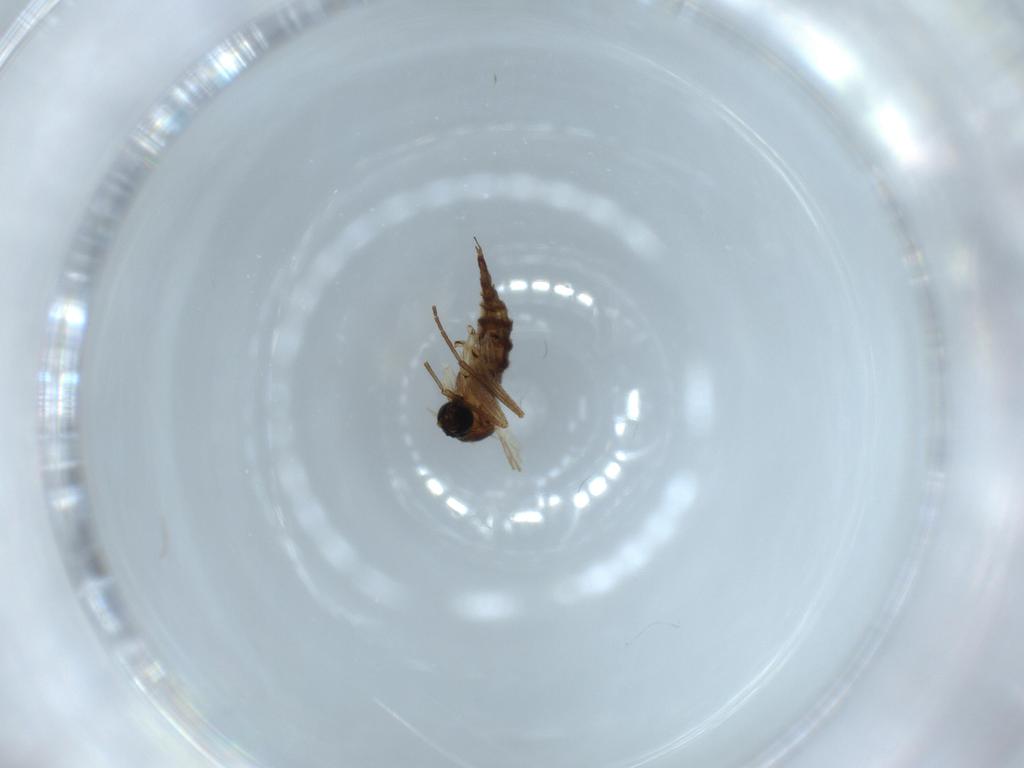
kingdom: Animalia
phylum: Arthropoda
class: Insecta
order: Diptera
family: Sciaridae
